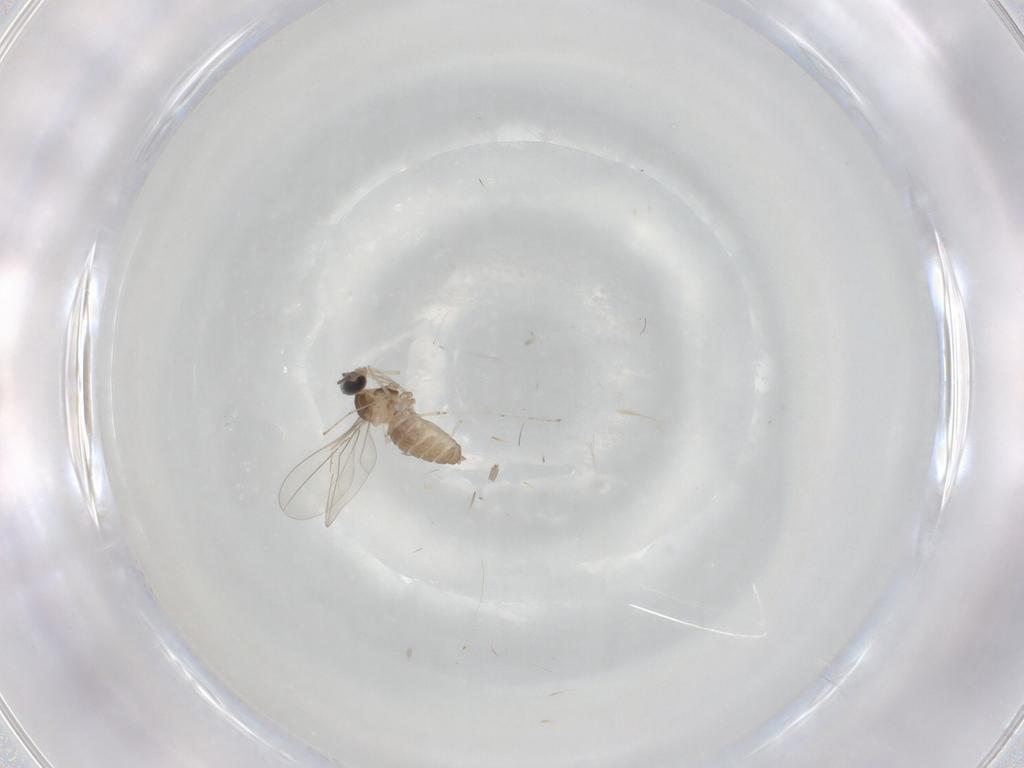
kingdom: Animalia
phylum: Arthropoda
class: Insecta
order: Diptera
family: Cecidomyiidae
